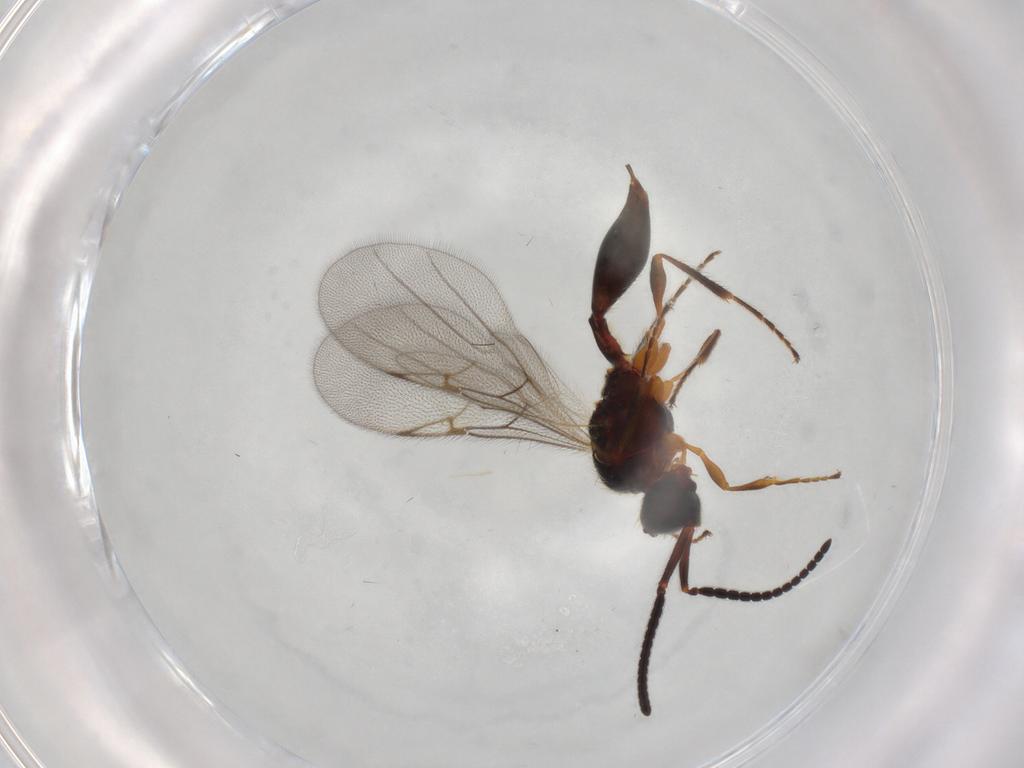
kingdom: Animalia
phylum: Arthropoda
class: Insecta
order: Hymenoptera
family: Diapriidae
